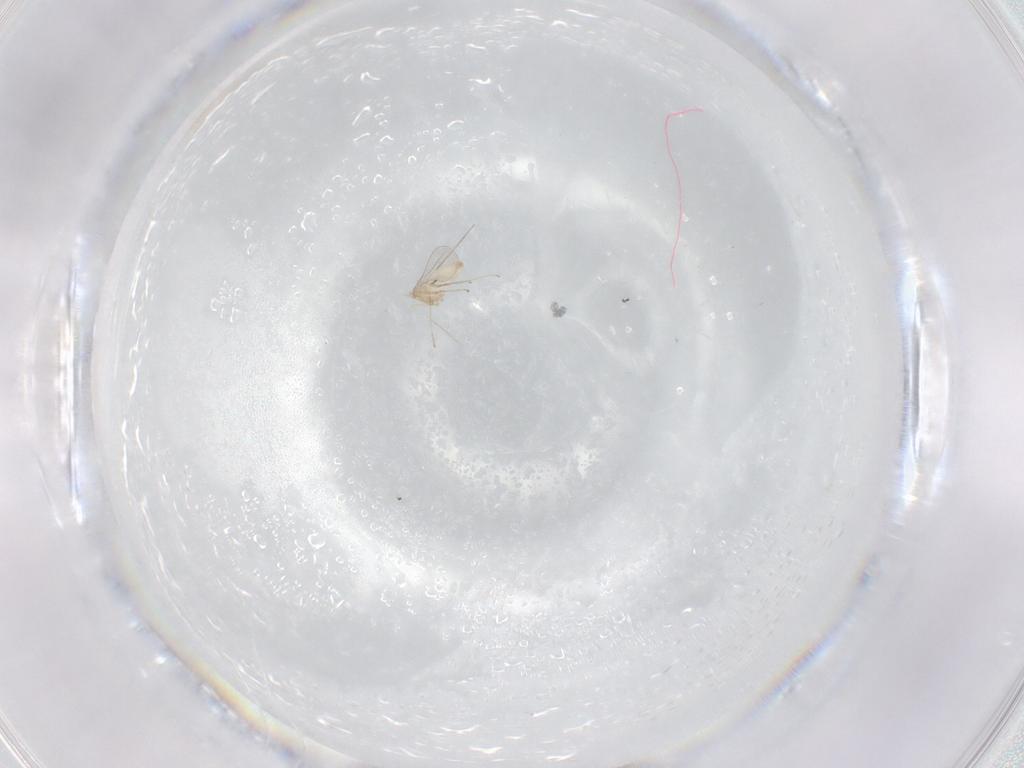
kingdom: Animalia
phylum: Arthropoda
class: Insecta
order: Diptera
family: Cecidomyiidae
